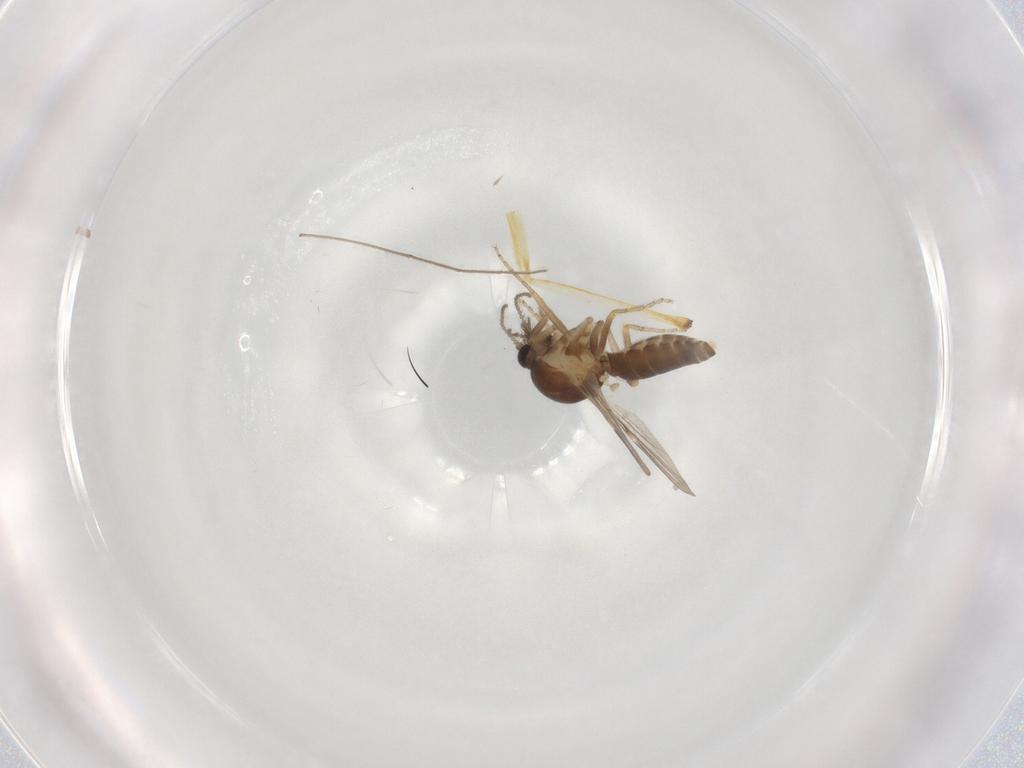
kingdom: Animalia
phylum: Arthropoda
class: Insecta
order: Diptera
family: Ceratopogonidae
